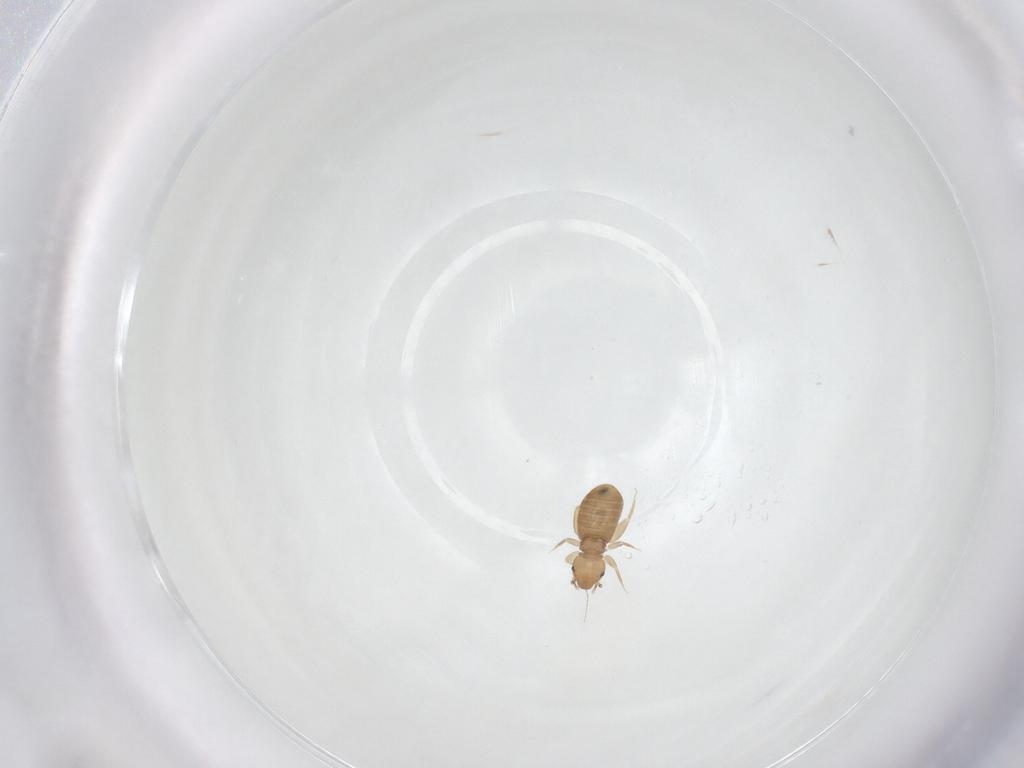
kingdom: Animalia
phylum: Arthropoda
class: Insecta
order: Psocodea
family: Liposcelididae
